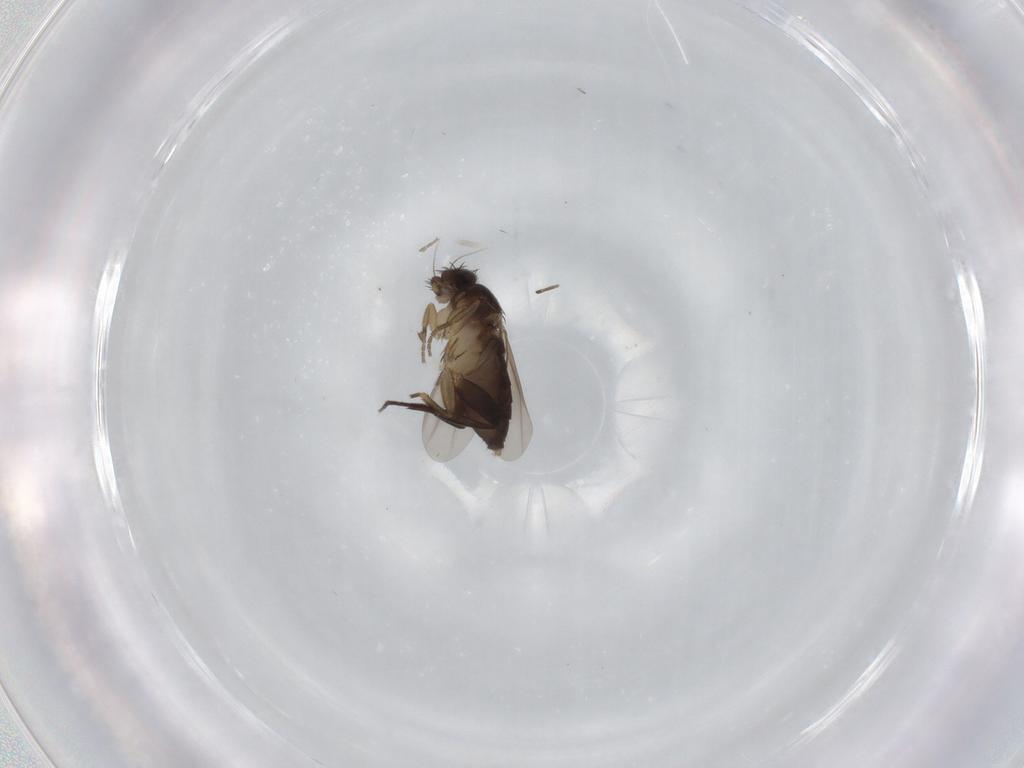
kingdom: Animalia
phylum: Arthropoda
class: Insecta
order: Diptera
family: Phoridae
